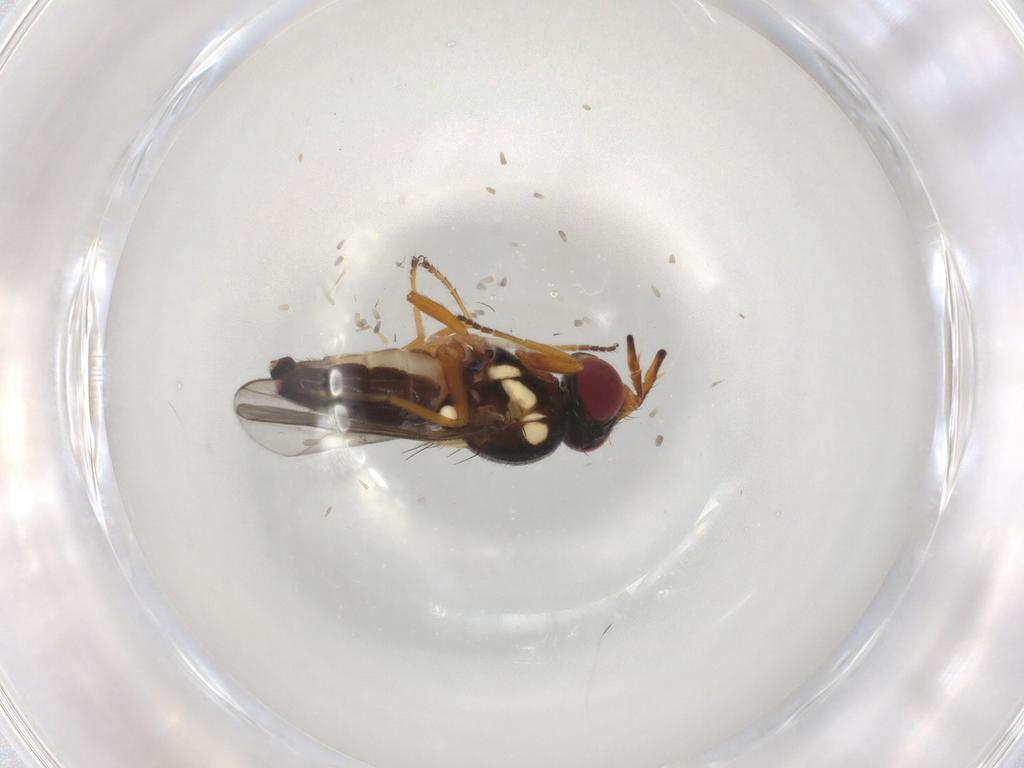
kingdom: Animalia
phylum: Arthropoda
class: Insecta
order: Diptera
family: Chloropidae
